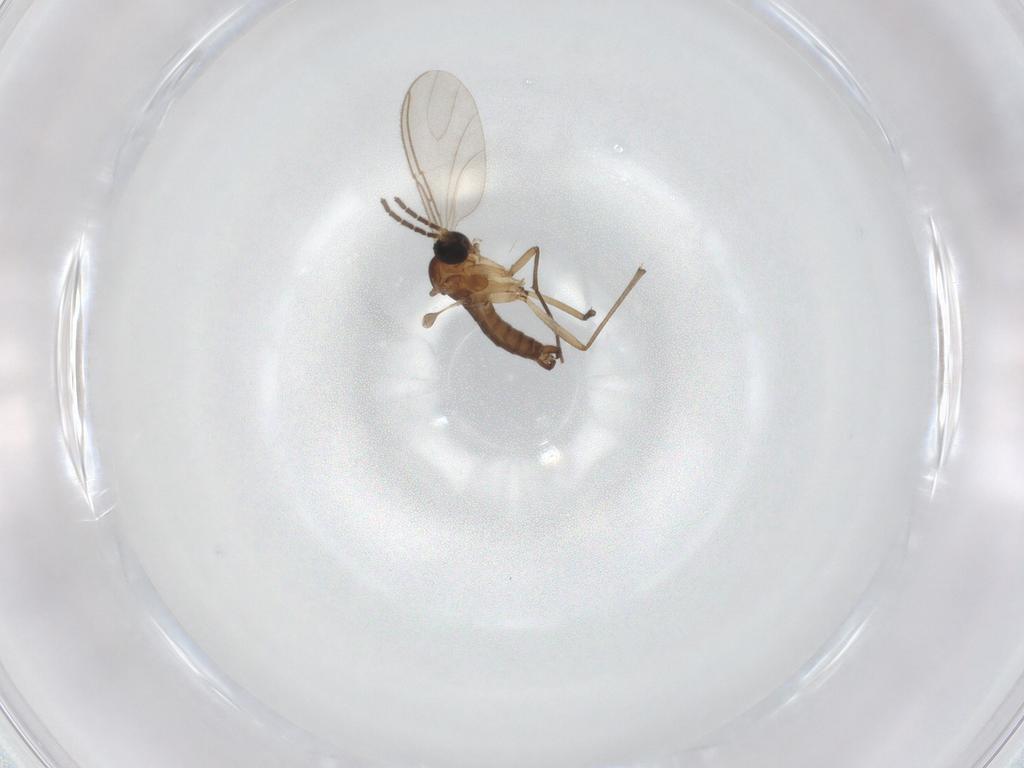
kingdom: Animalia
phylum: Arthropoda
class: Insecta
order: Diptera
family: Sciaridae
